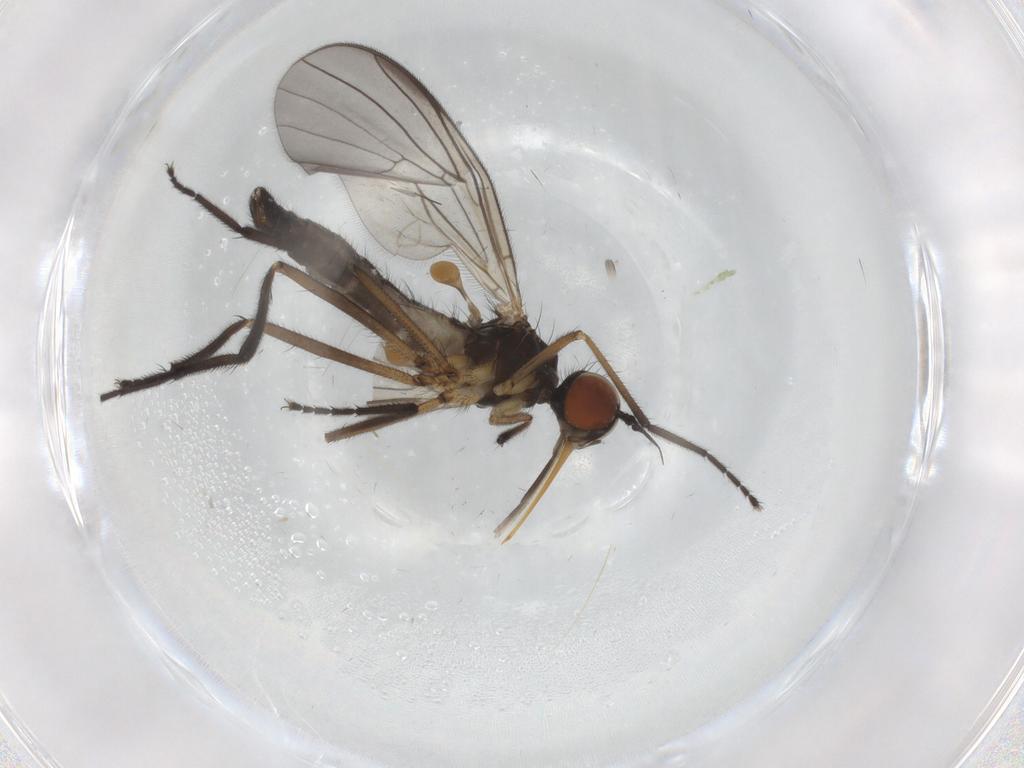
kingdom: Animalia
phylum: Arthropoda
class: Insecta
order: Diptera
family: Empididae
